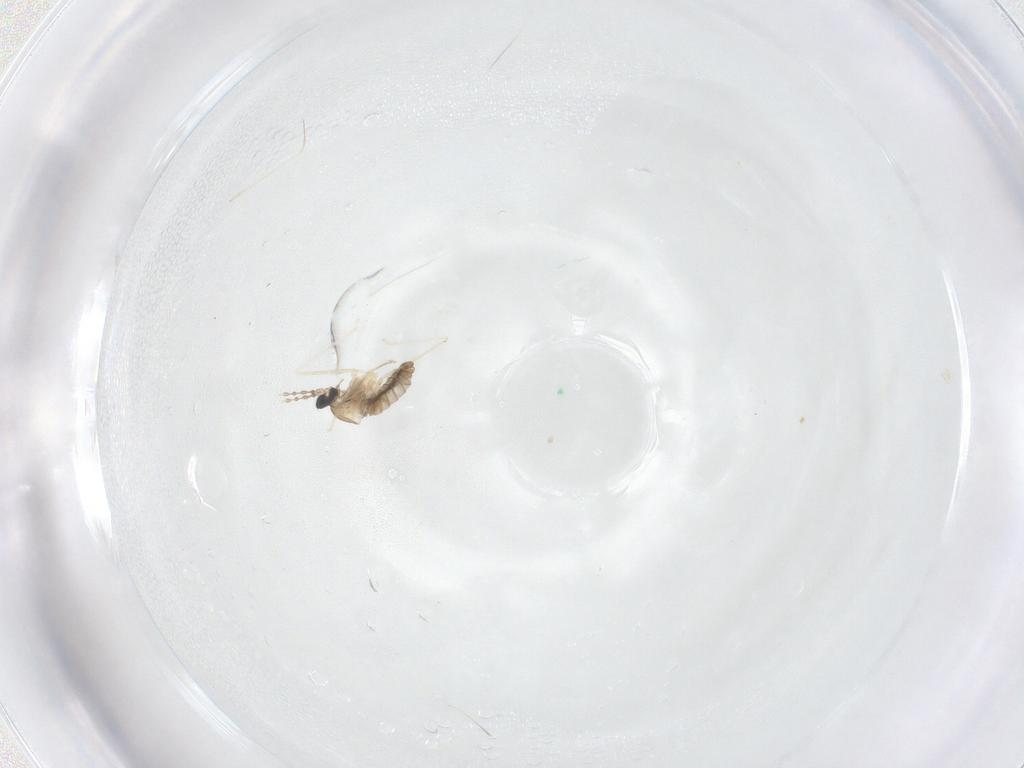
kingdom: Animalia
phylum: Arthropoda
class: Insecta
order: Diptera
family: Cecidomyiidae
